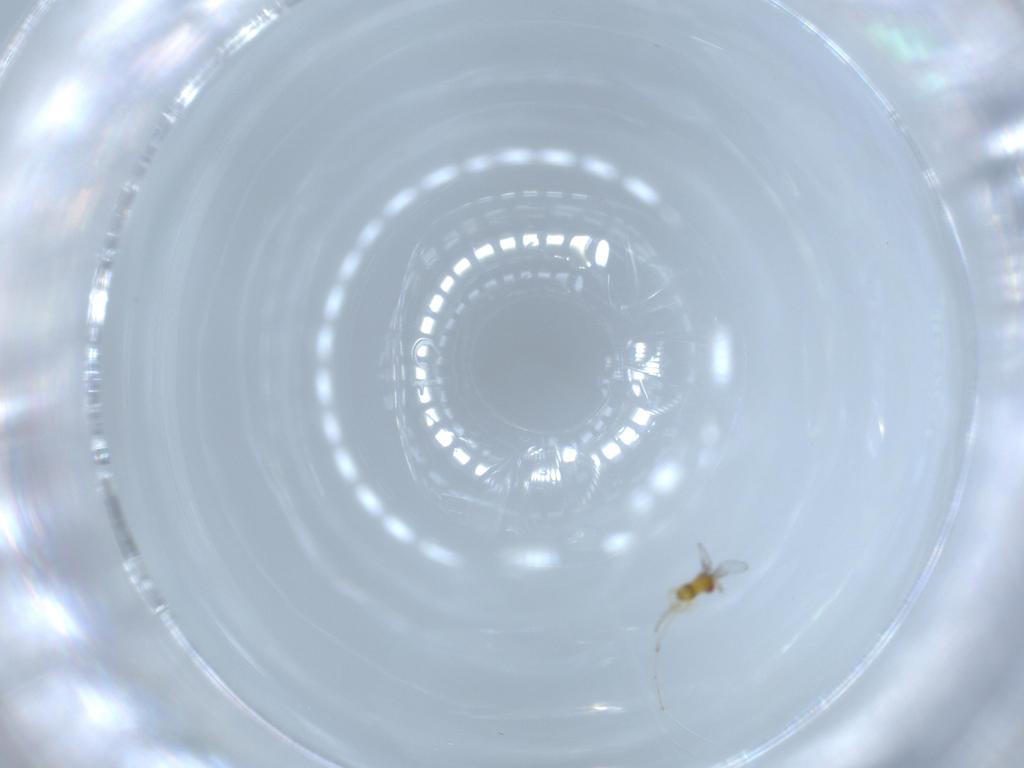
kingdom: Animalia
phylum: Arthropoda
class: Insecta
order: Hymenoptera
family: Trichogrammatidae
